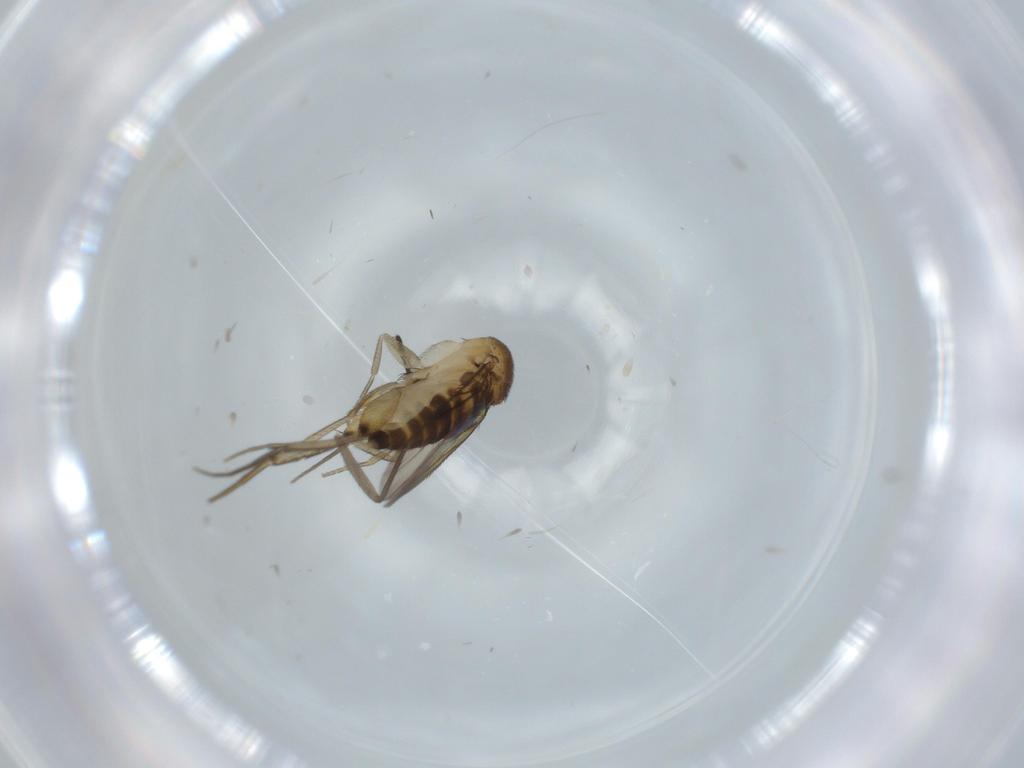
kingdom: Animalia
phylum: Arthropoda
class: Insecta
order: Diptera
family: Phoridae
